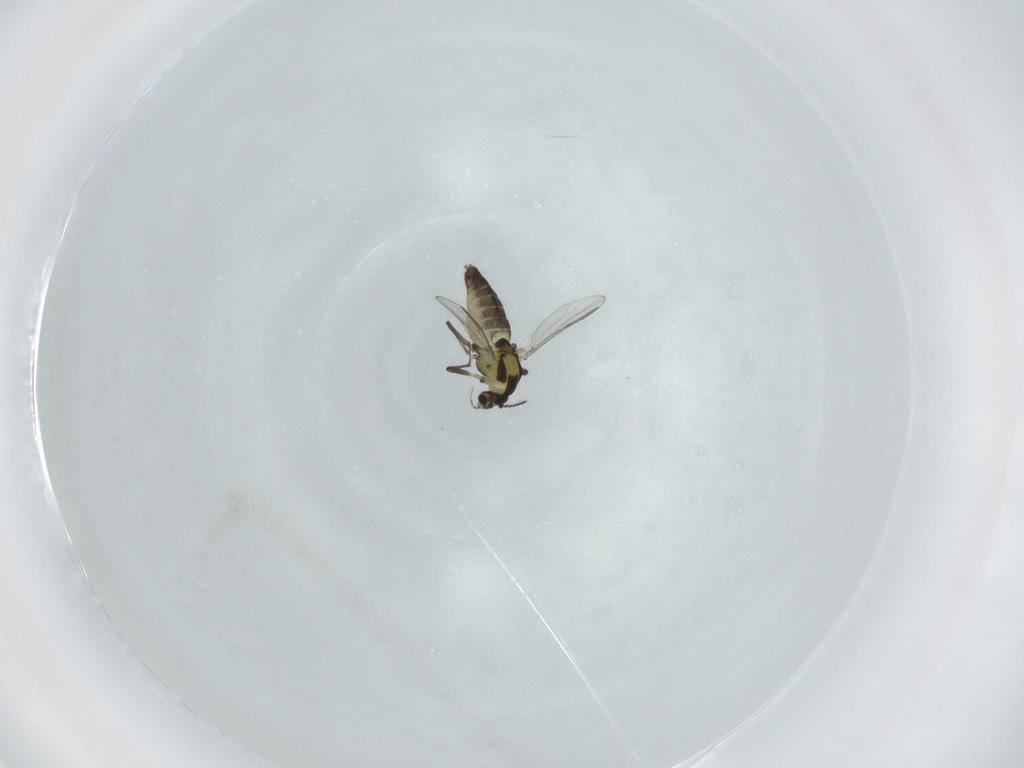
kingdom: Animalia
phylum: Arthropoda
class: Insecta
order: Diptera
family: Chironomidae
